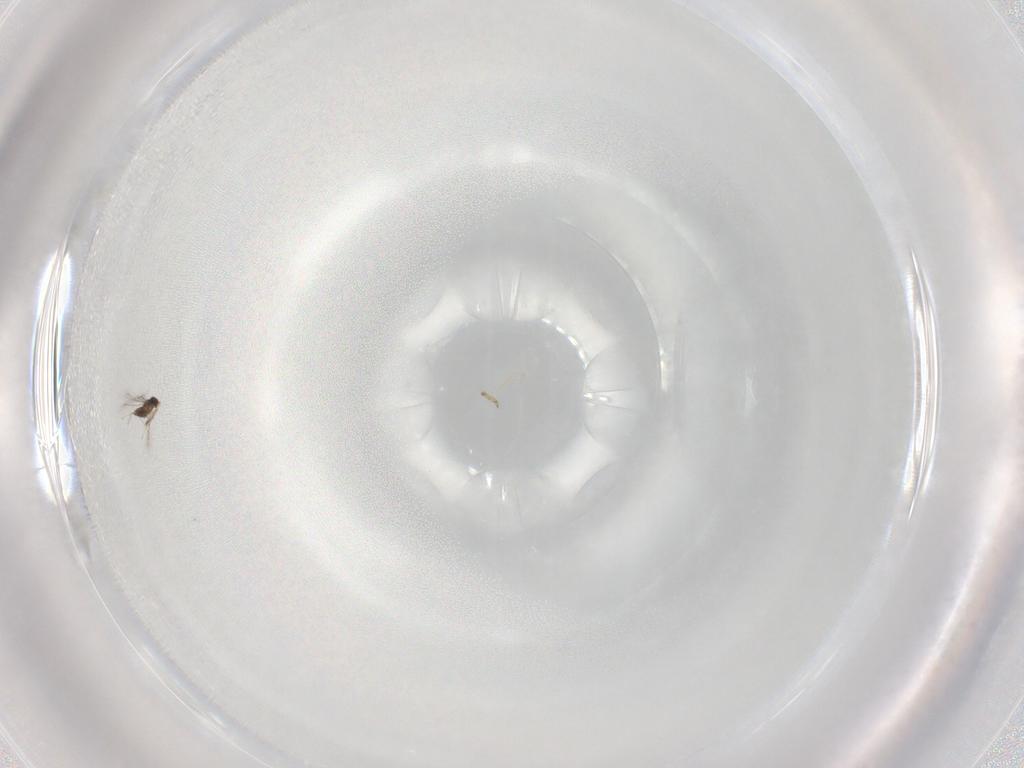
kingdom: Animalia
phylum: Arthropoda
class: Insecta
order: Hymenoptera
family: Scelionidae
